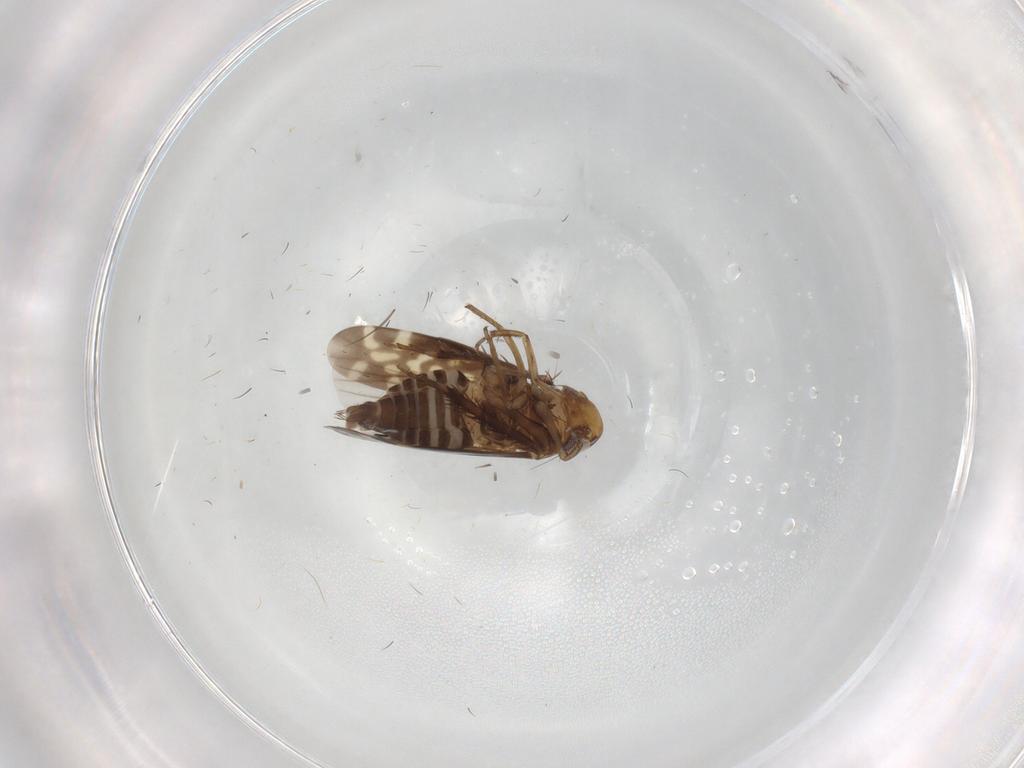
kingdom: Animalia
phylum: Arthropoda
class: Insecta
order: Hemiptera
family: Cicadellidae
